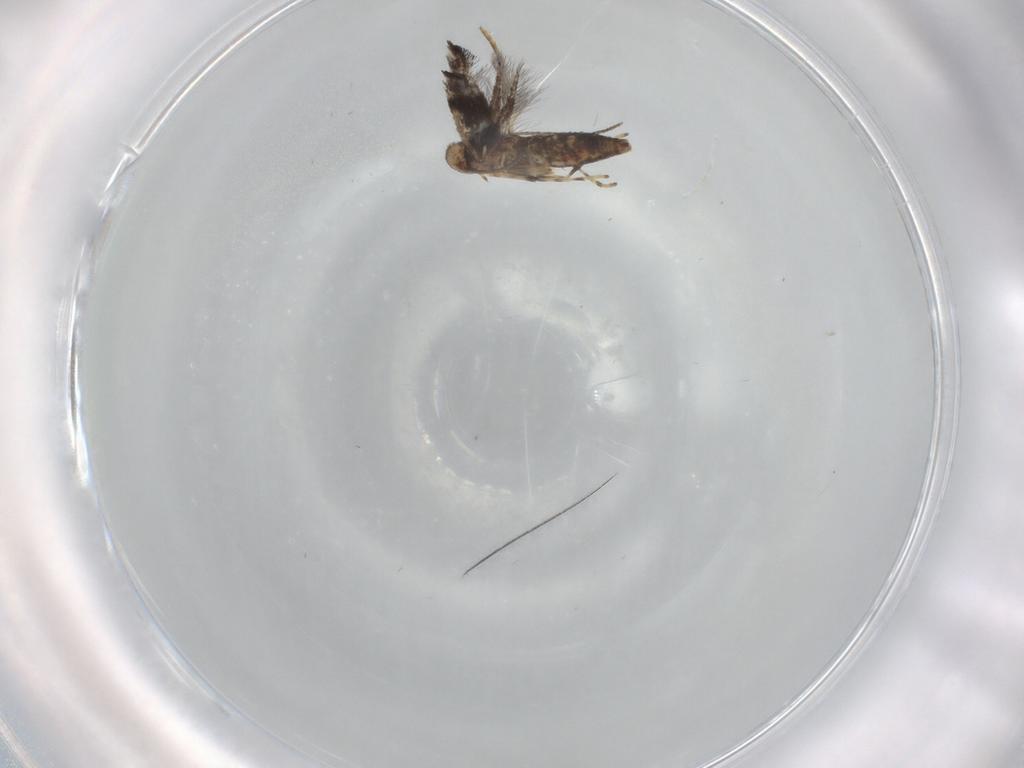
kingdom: Animalia
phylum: Arthropoda
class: Insecta
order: Lepidoptera
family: Gracillariidae
